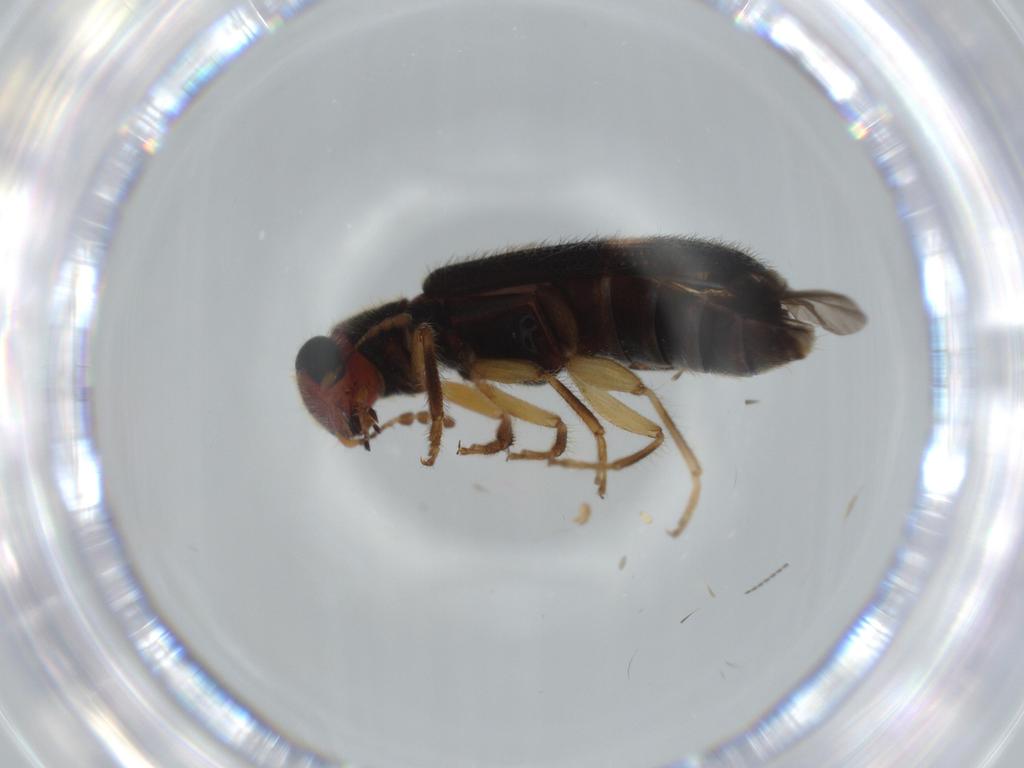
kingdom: Animalia
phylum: Arthropoda
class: Insecta
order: Coleoptera
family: Cleridae
